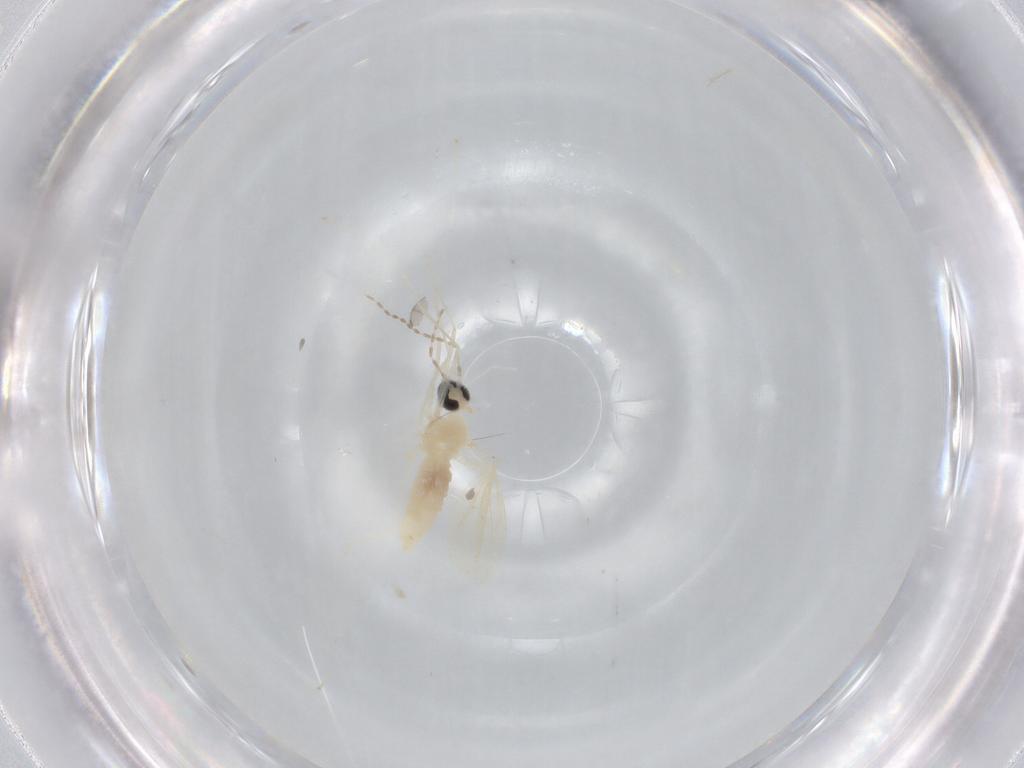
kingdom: Animalia
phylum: Arthropoda
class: Insecta
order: Diptera
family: Cecidomyiidae
